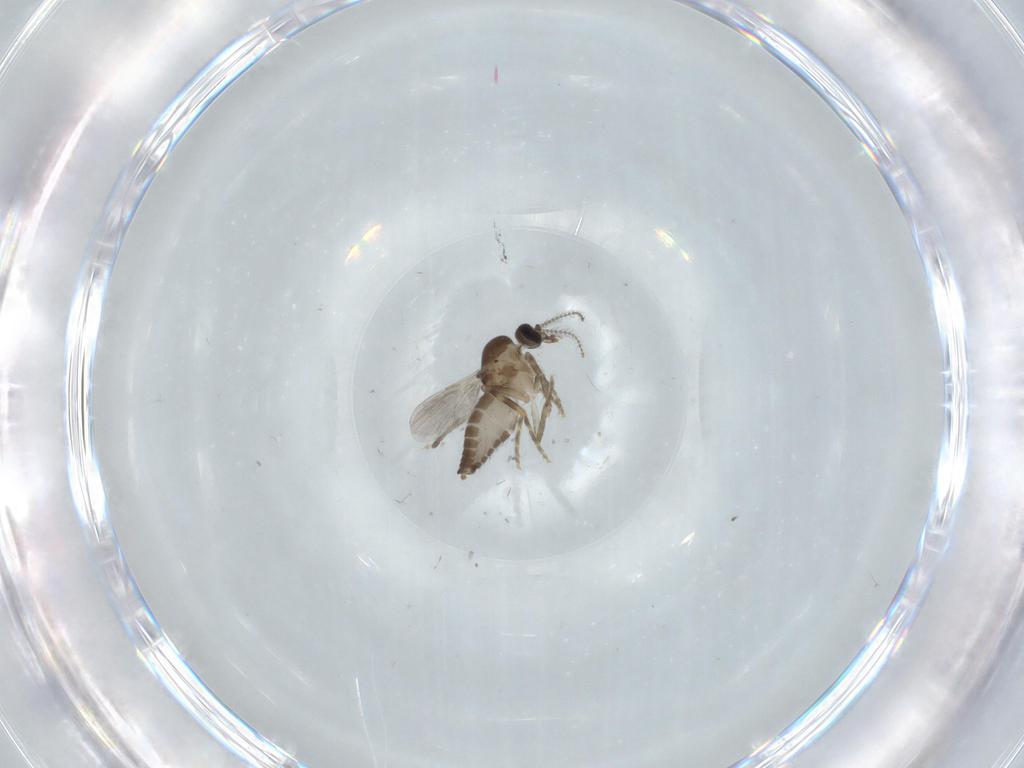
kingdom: Animalia
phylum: Arthropoda
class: Insecta
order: Diptera
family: Ceratopogonidae
